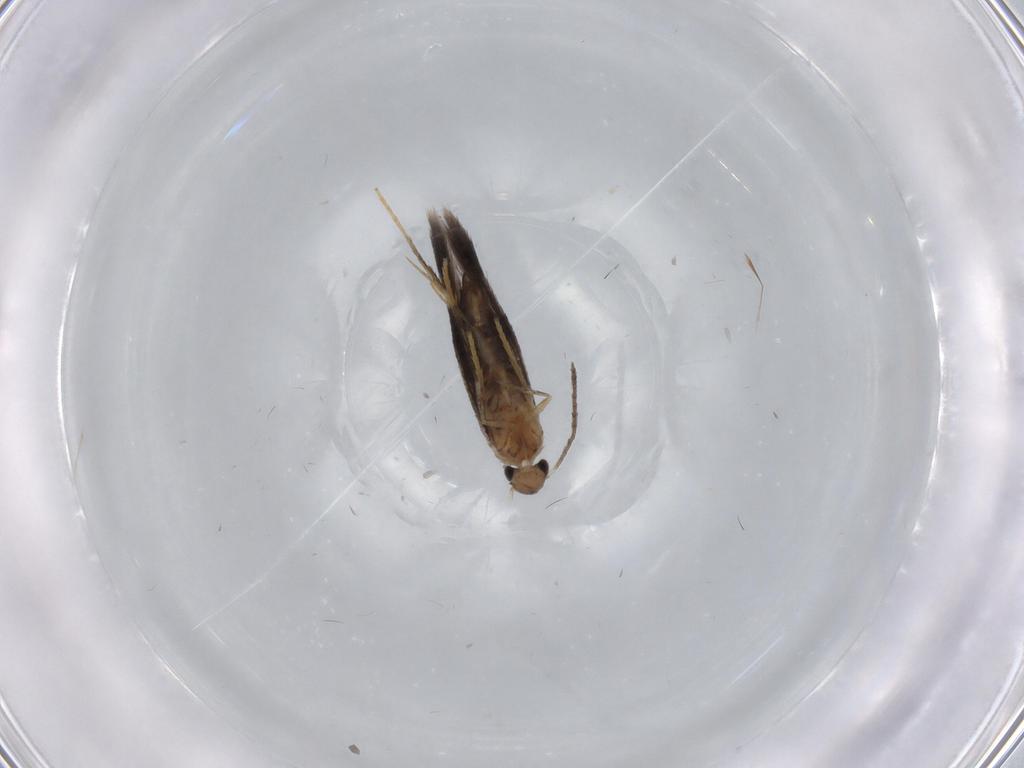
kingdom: Animalia
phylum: Arthropoda
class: Insecta
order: Lepidoptera
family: Heliozelidae
